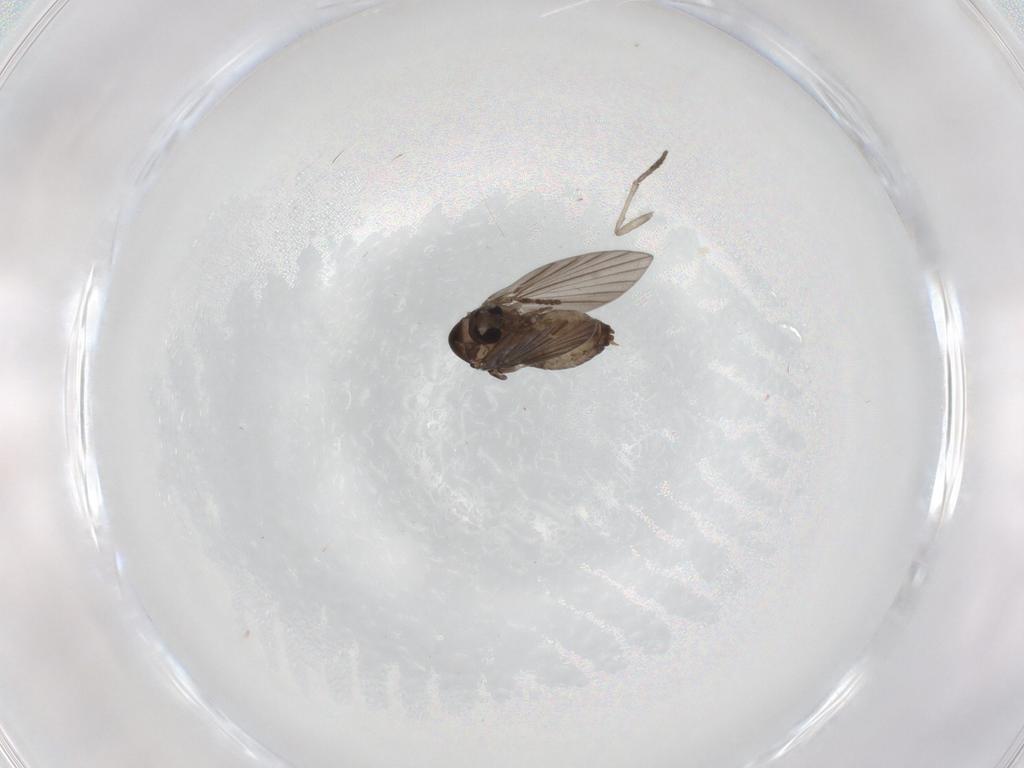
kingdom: Animalia
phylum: Arthropoda
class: Insecta
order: Diptera
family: Psychodidae
